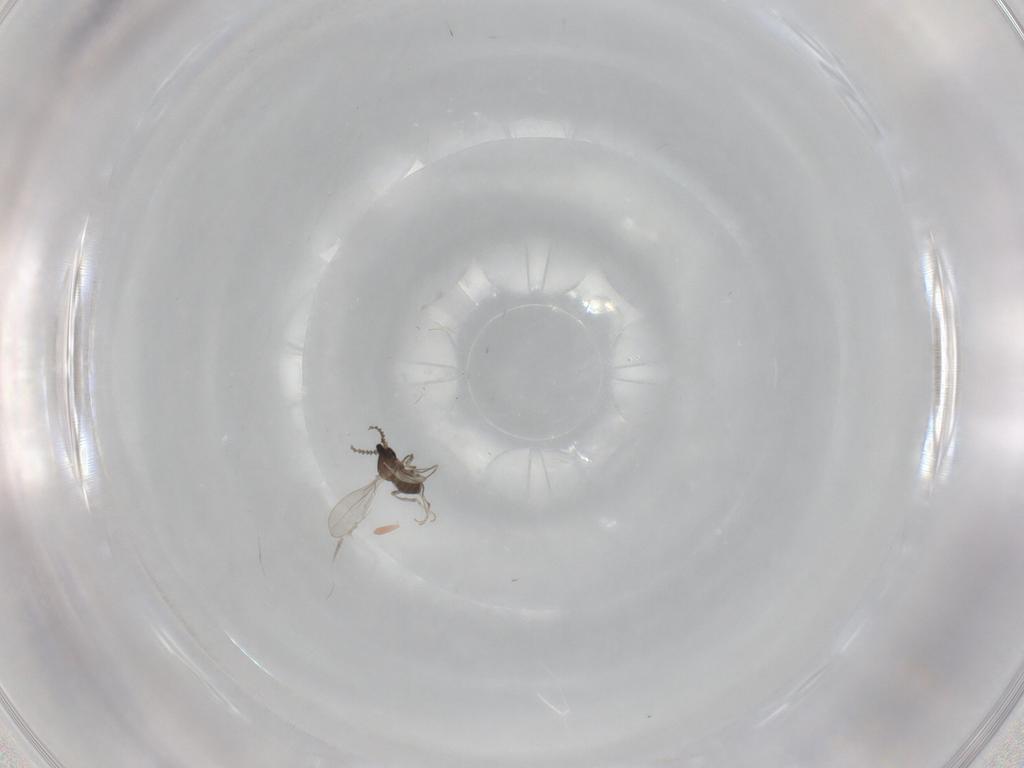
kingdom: Animalia
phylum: Arthropoda
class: Insecta
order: Diptera
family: Cecidomyiidae
